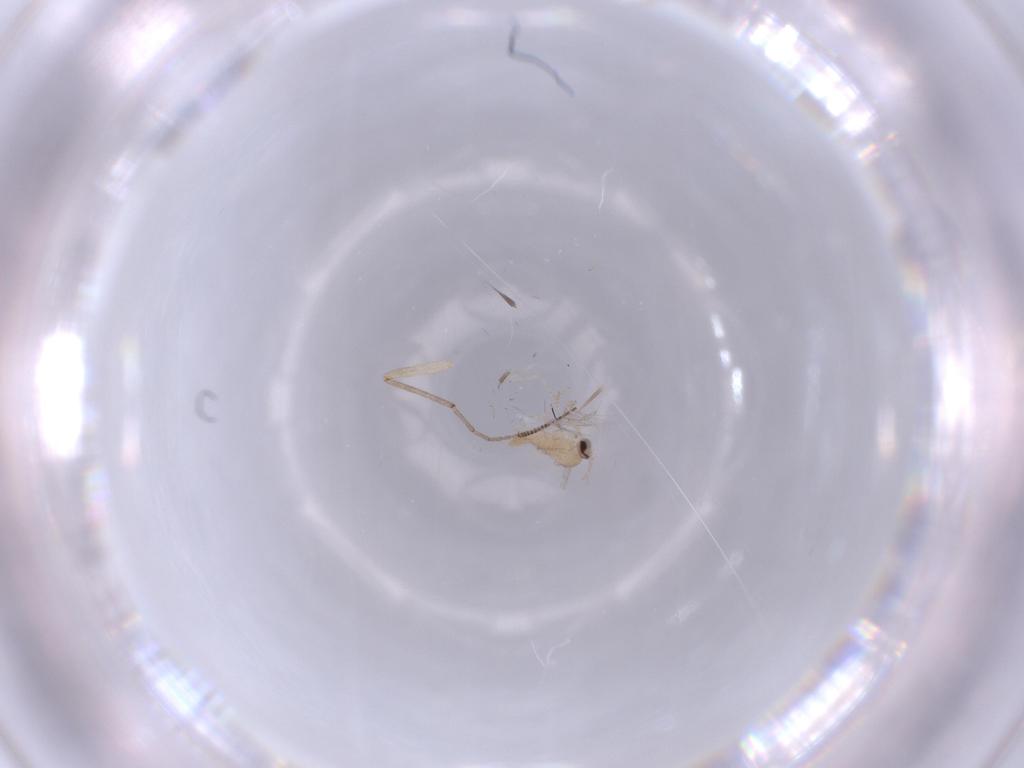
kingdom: Animalia
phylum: Arthropoda
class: Insecta
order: Diptera
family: Cecidomyiidae
